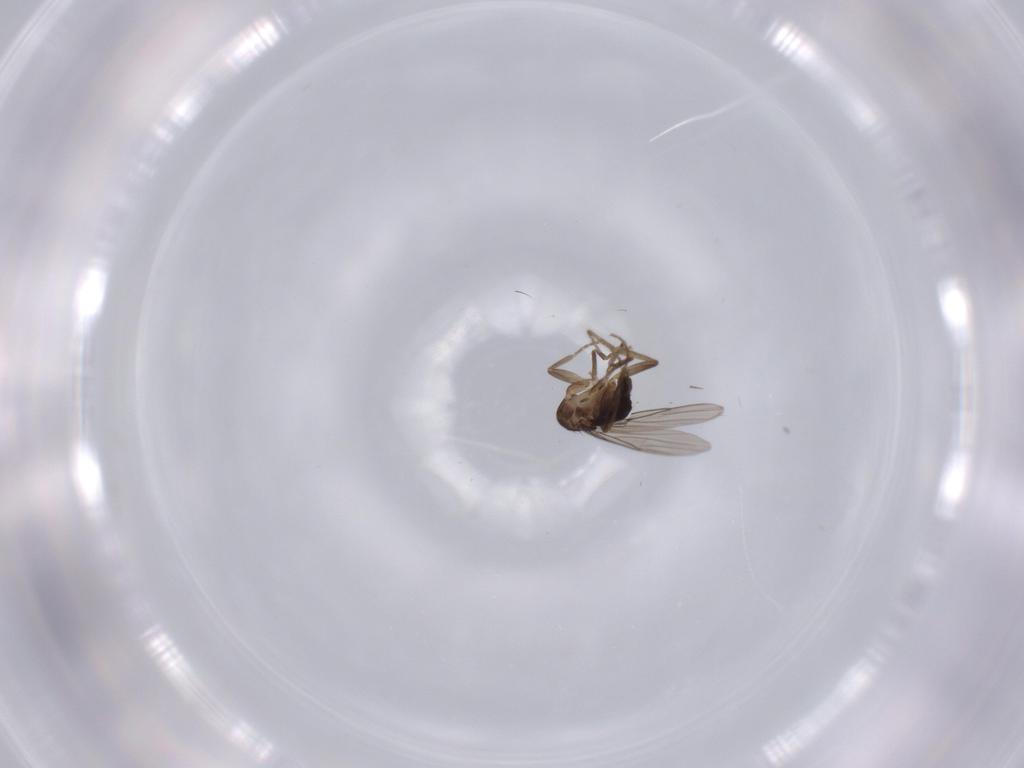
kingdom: Animalia
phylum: Arthropoda
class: Insecta
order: Diptera
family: Phoridae
